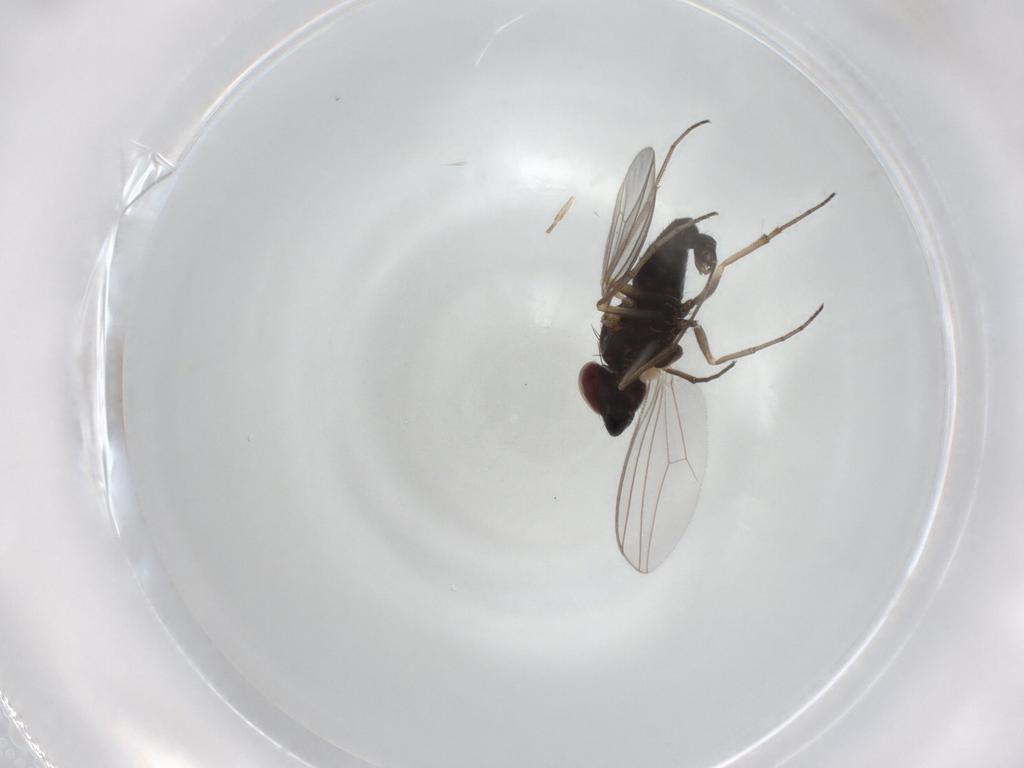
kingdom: Animalia
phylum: Arthropoda
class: Insecta
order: Diptera
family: Dolichopodidae
